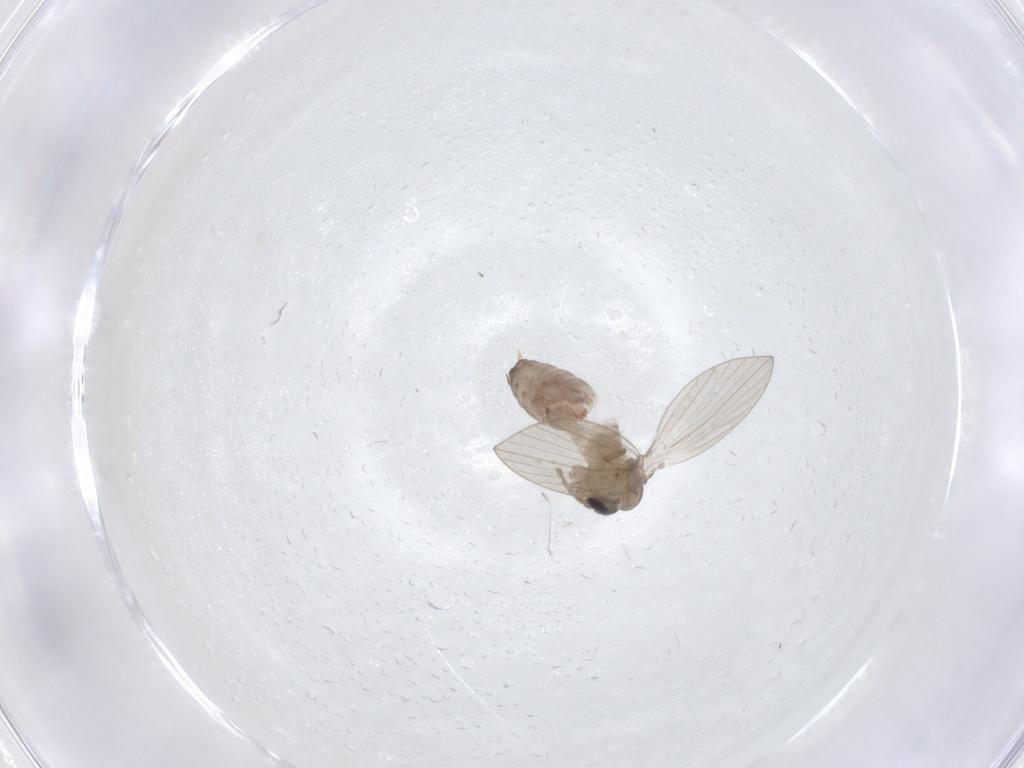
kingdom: Animalia
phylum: Arthropoda
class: Insecta
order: Diptera
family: Psychodidae
